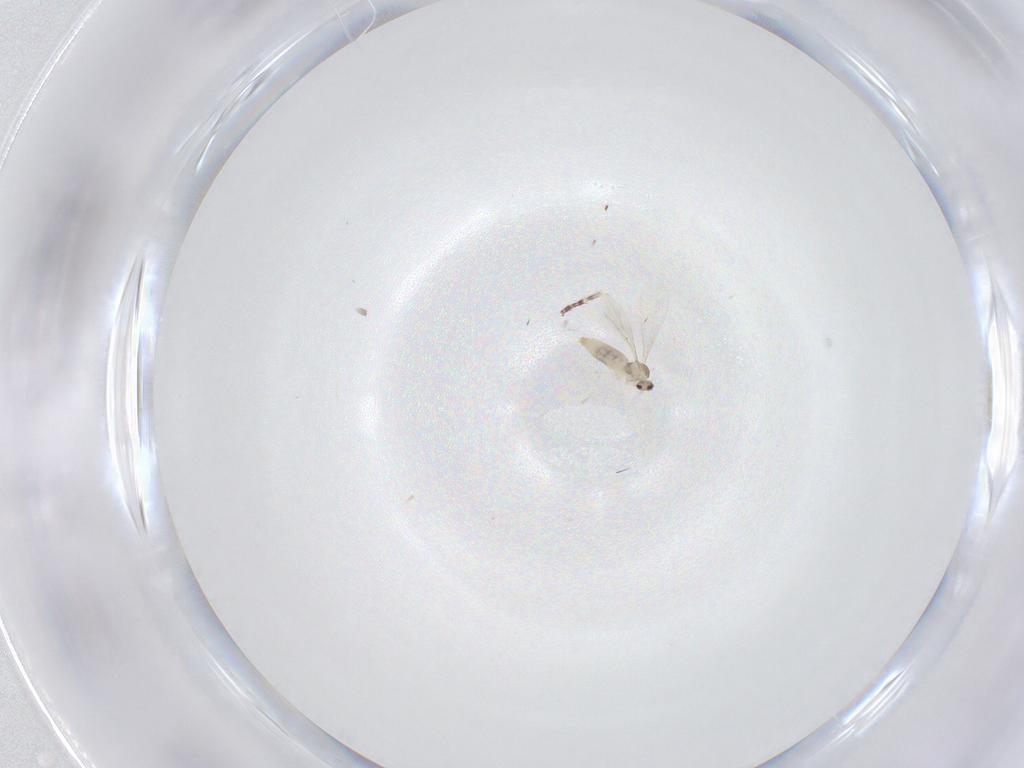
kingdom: Animalia
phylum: Arthropoda
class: Insecta
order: Diptera
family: Cecidomyiidae
